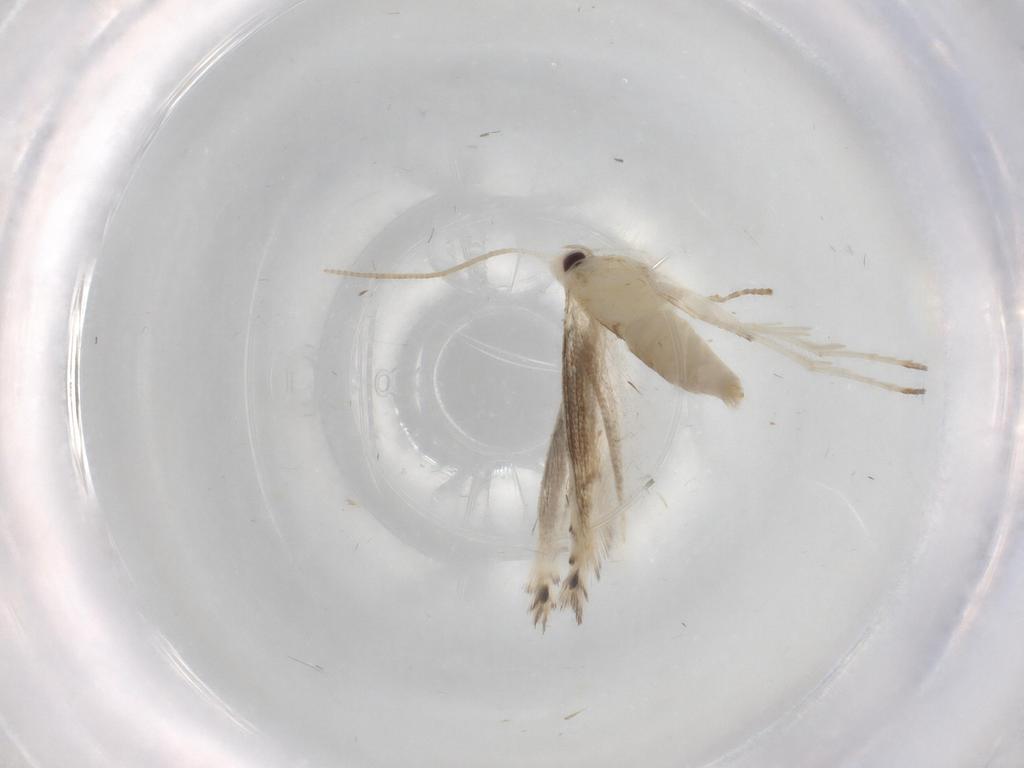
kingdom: Animalia
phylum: Arthropoda
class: Insecta
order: Lepidoptera
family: Gracillariidae
